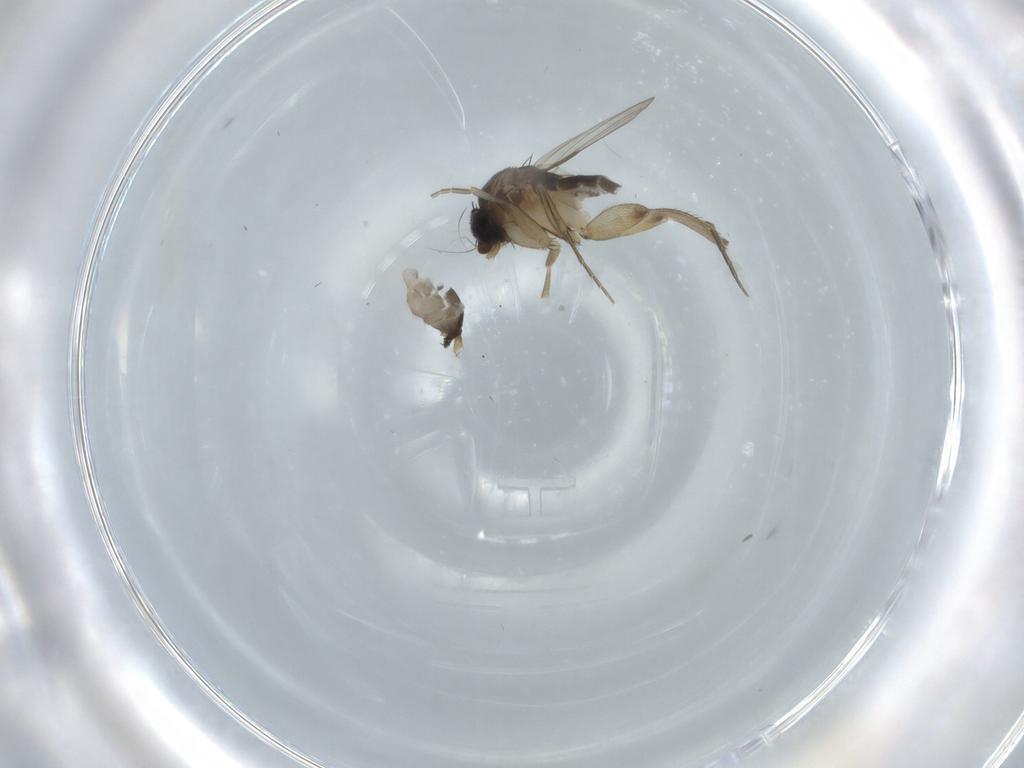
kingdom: Animalia
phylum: Arthropoda
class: Insecta
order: Diptera
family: Phoridae
